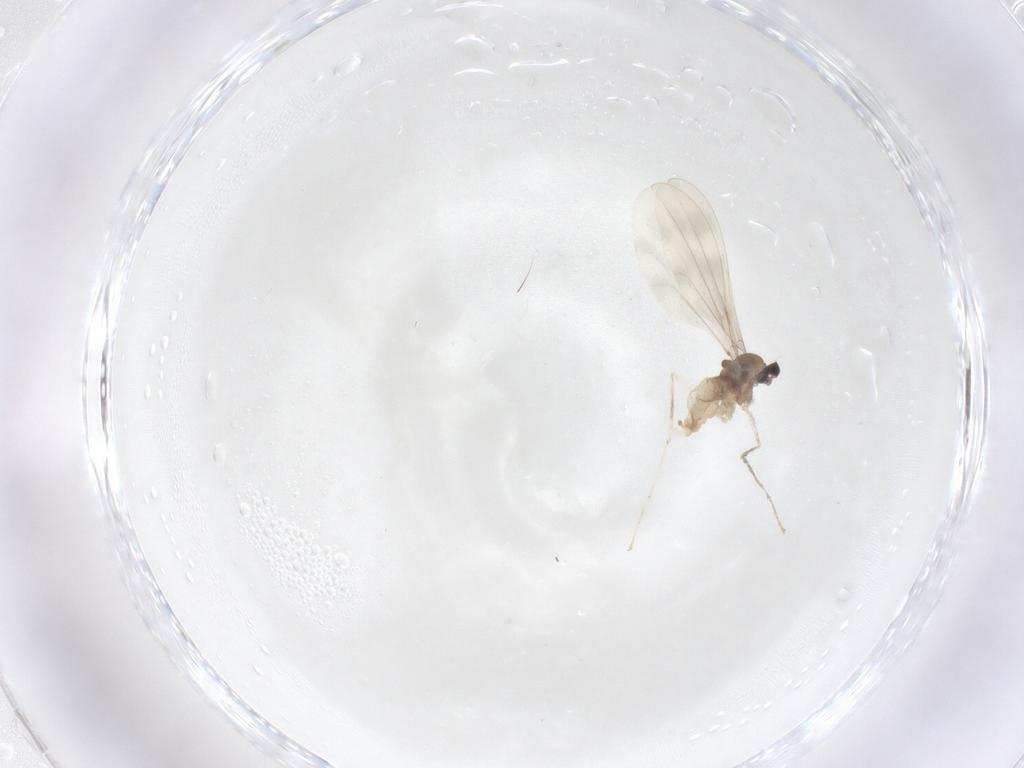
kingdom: Animalia
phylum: Arthropoda
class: Insecta
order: Diptera
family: Cecidomyiidae
